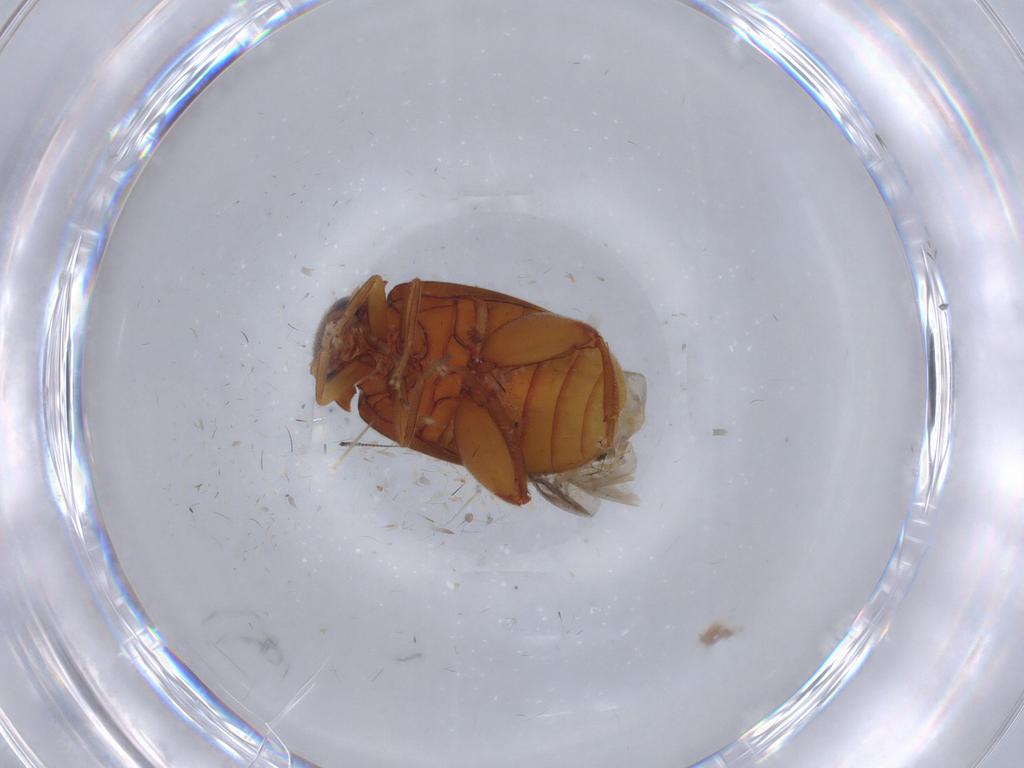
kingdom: Animalia
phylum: Arthropoda
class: Insecta
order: Coleoptera
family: Scirtidae
